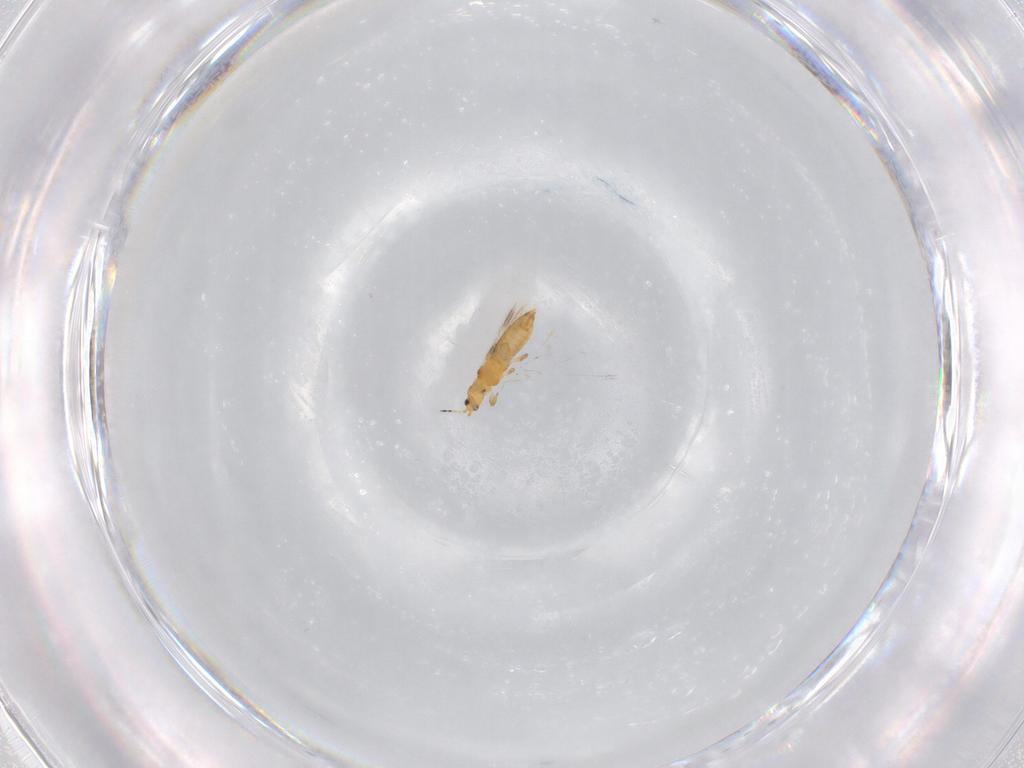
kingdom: Animalia
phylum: Arthropoda
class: Insecta
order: Thysanoptera
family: Thripidae
